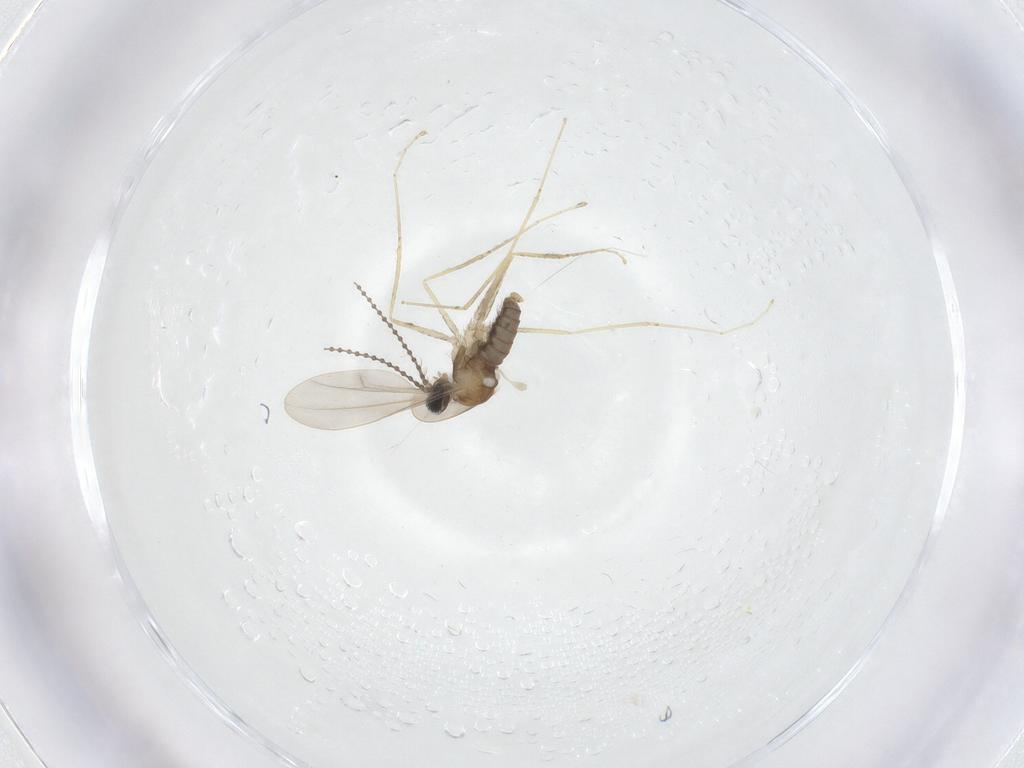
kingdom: Animalia
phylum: Arthropoda
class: Insecta
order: Diptera
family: Cecidomyiidae
